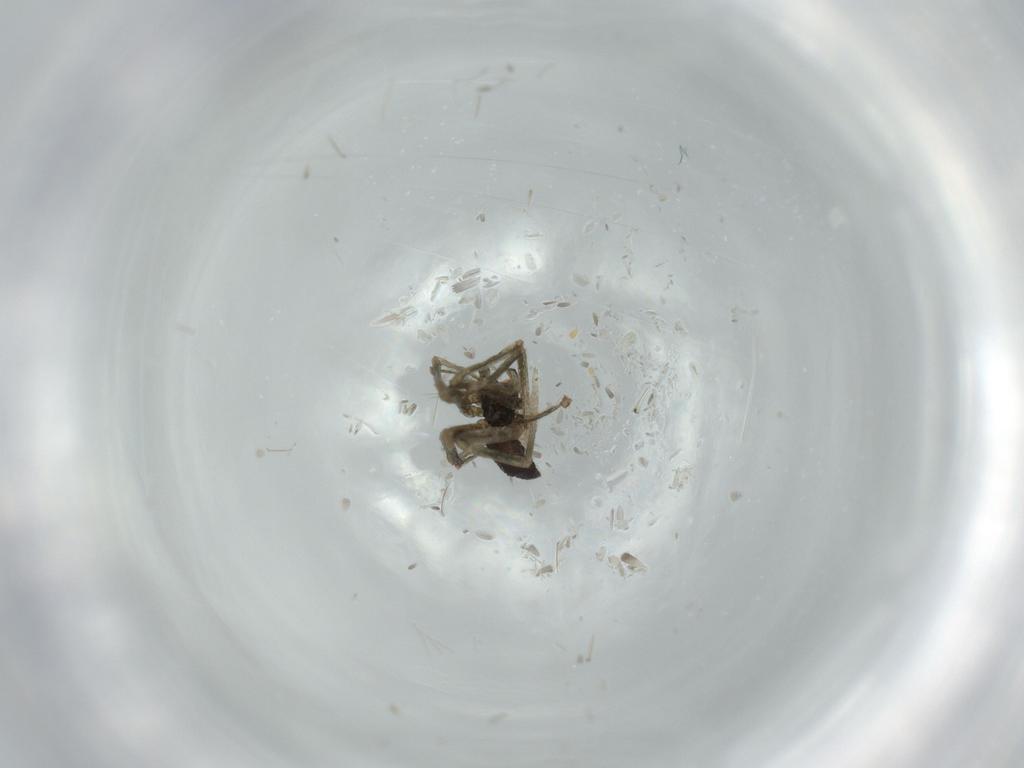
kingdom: Animalia
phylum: Arthropoda
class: Arachnida
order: Araneae
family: Linyphiidae
